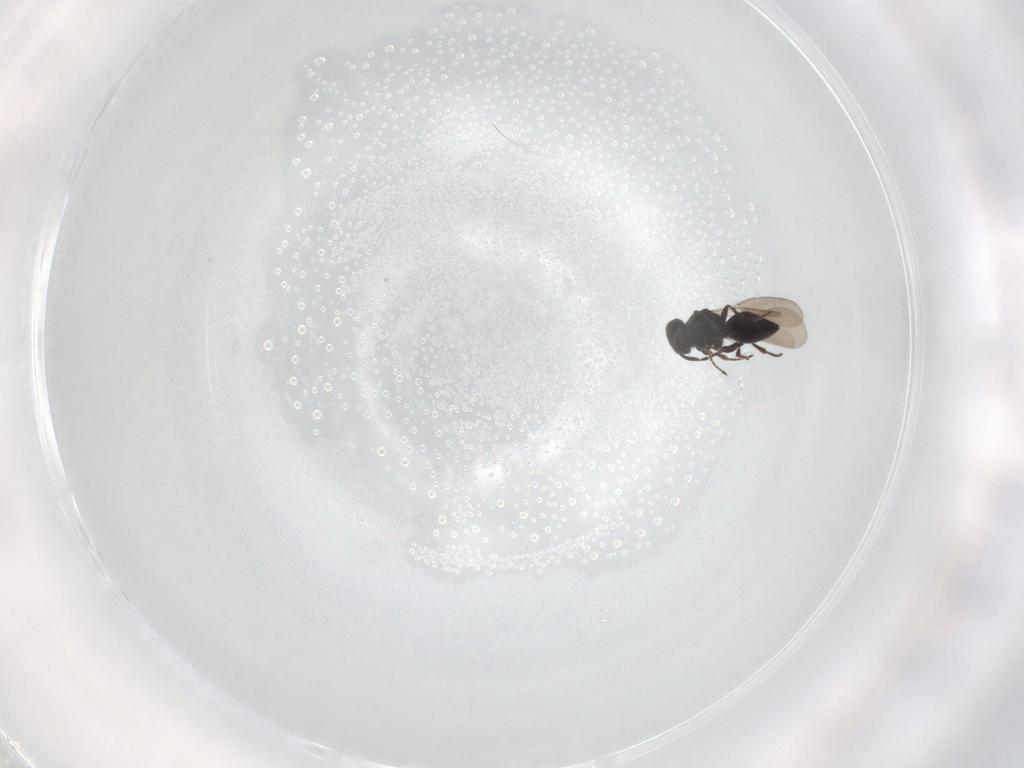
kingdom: Animalia
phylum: Arthropoda
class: Insecta
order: Hymenoptera
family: Platygastridae
